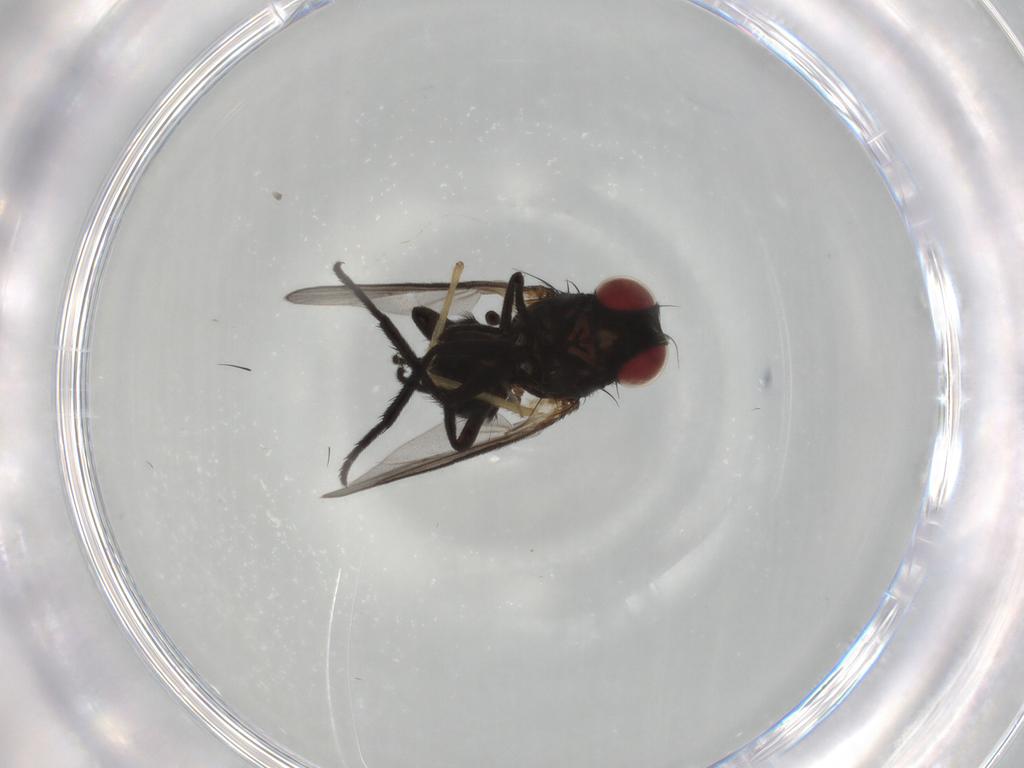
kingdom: Animalia
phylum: Arthropoda
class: Insecta
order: Diptera
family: Agromyzidae
